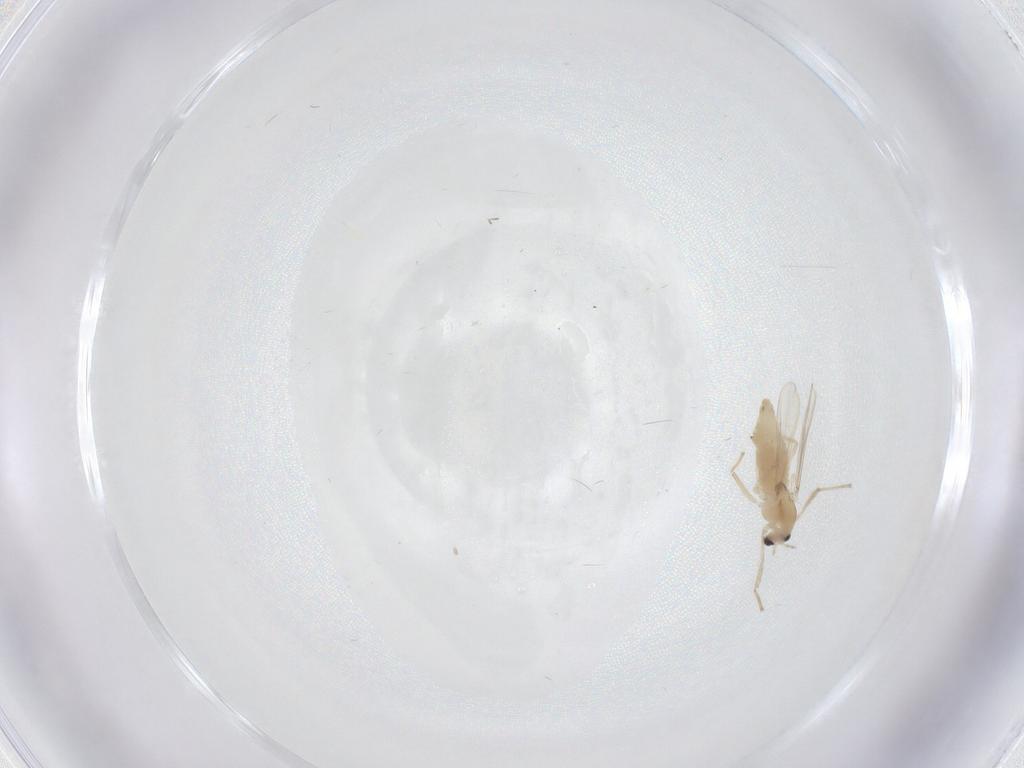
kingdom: Animalia
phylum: Arthropoda
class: Insecta
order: Diptera
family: Chironomidae
